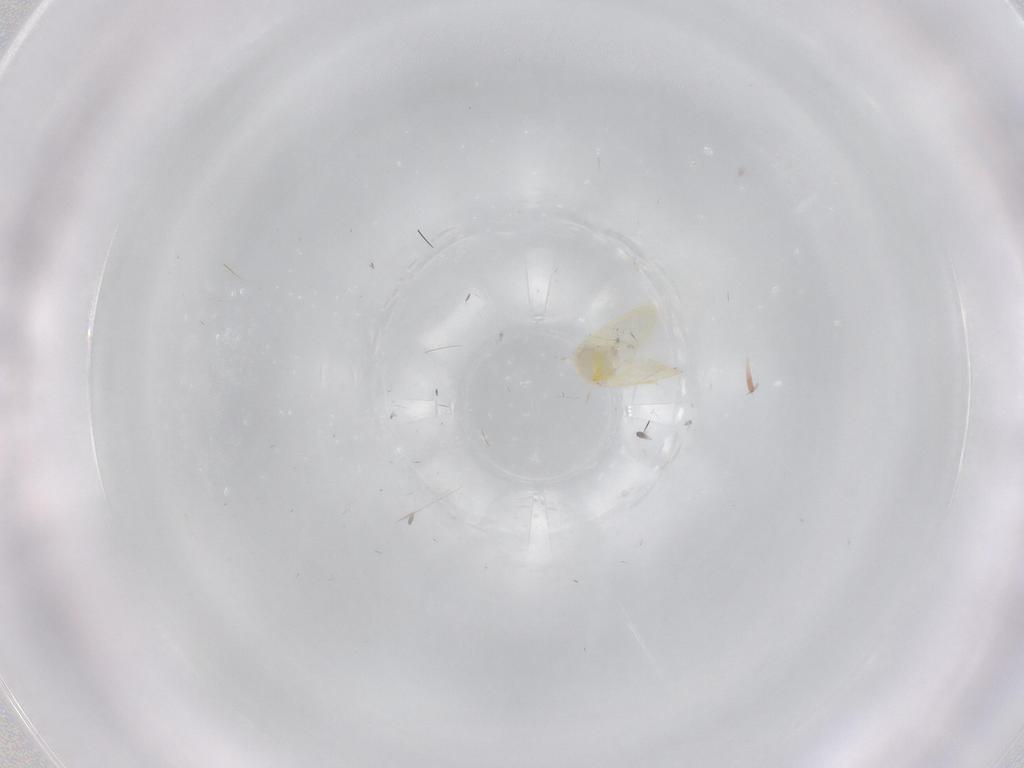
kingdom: Animalia
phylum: Arthropoda
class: Insecta
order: Hemiptera
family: Aleyrodidae
